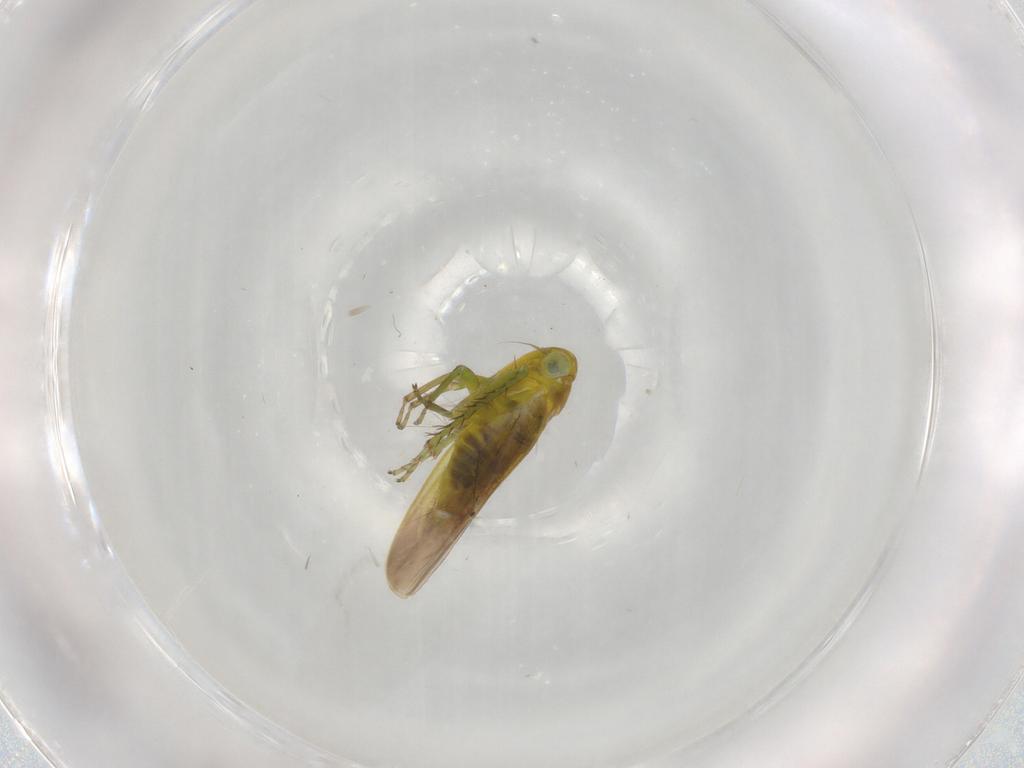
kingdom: Animalia
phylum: Arthropoda
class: Insecta
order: Hemiptera
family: Cicadellidae
